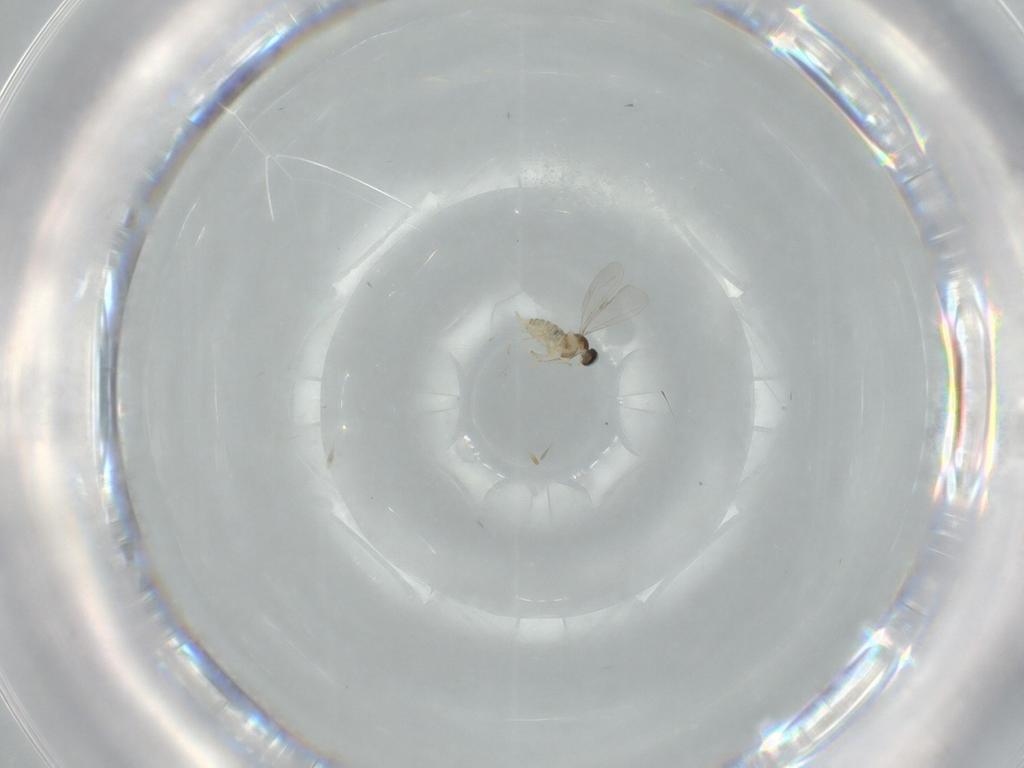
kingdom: Animalia
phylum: Arthropoda
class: Insecta
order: Diptera
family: Cecidomyiidae
